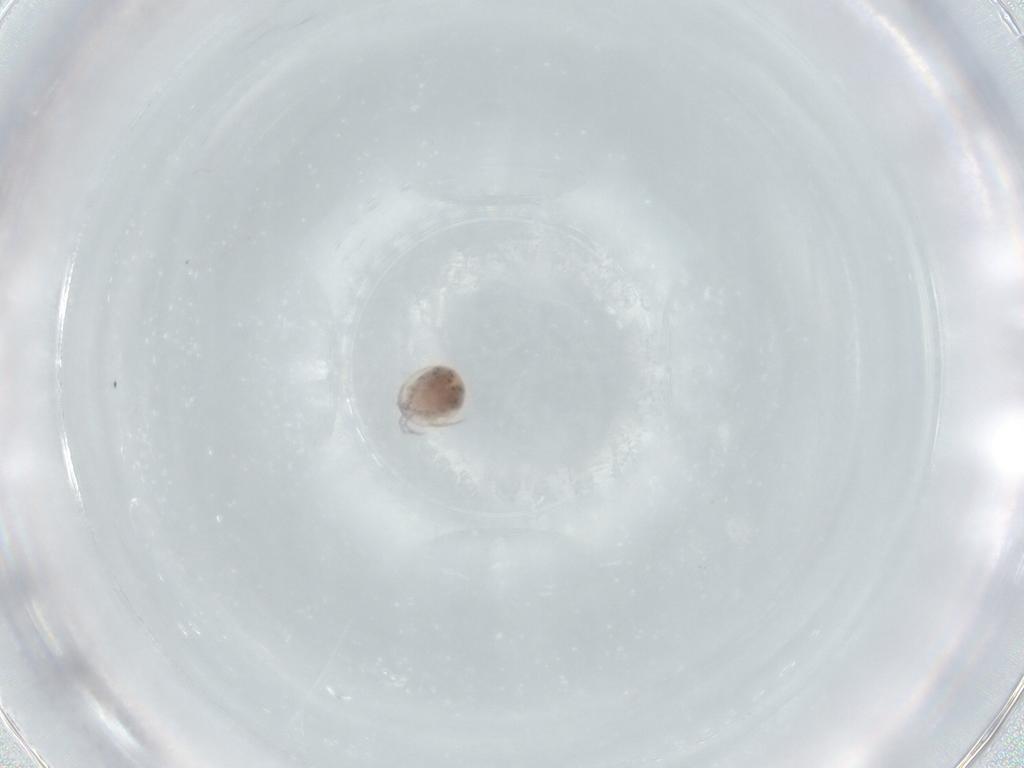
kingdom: Animalia
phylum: Arthropoda
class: Arachnida
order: Trombidiformes
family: Lebertiidae
